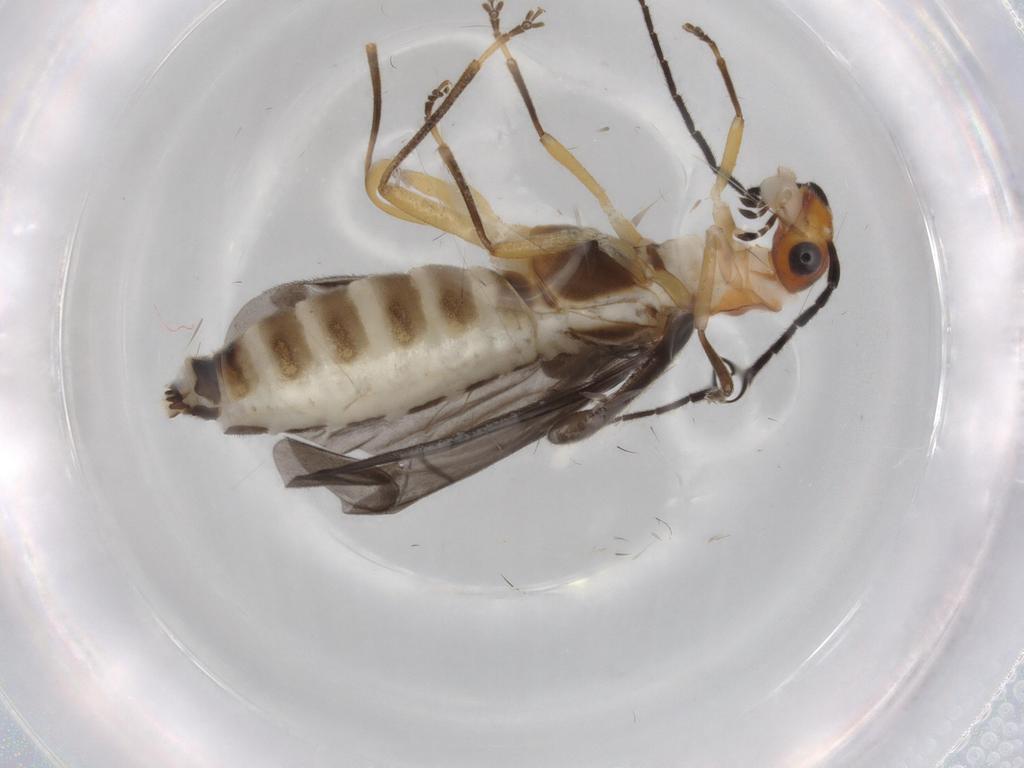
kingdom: Animalia
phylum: Arthropoda
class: Insecta
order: Coleoptera
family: Cantharidae
